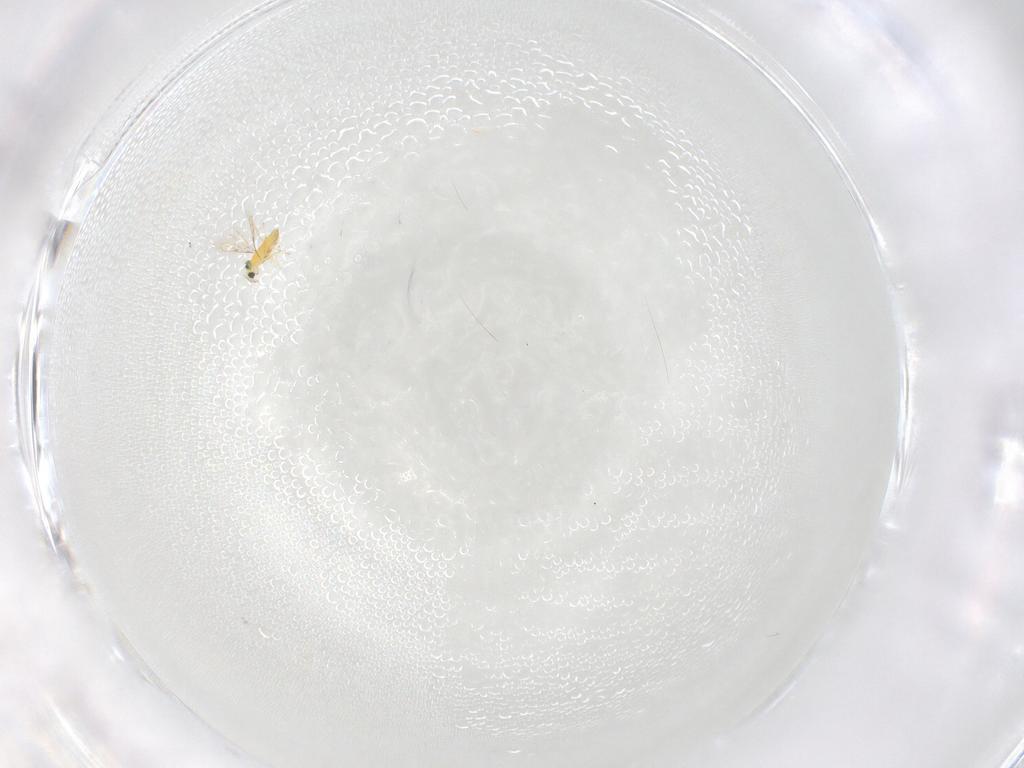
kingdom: Animalia
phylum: Arthropoda
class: Insecta
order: Hymenoptera
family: Trichogrammatidae
